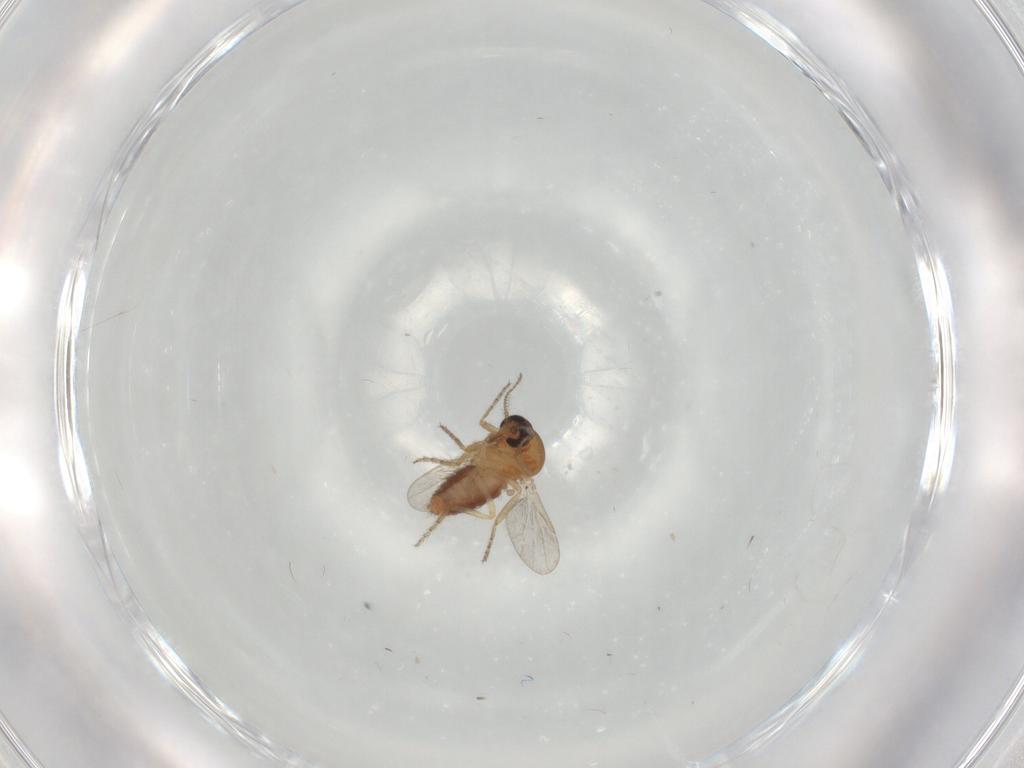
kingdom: Animalia
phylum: Arthropoda
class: Insecta
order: Diptera
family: Ceratopogonidae
